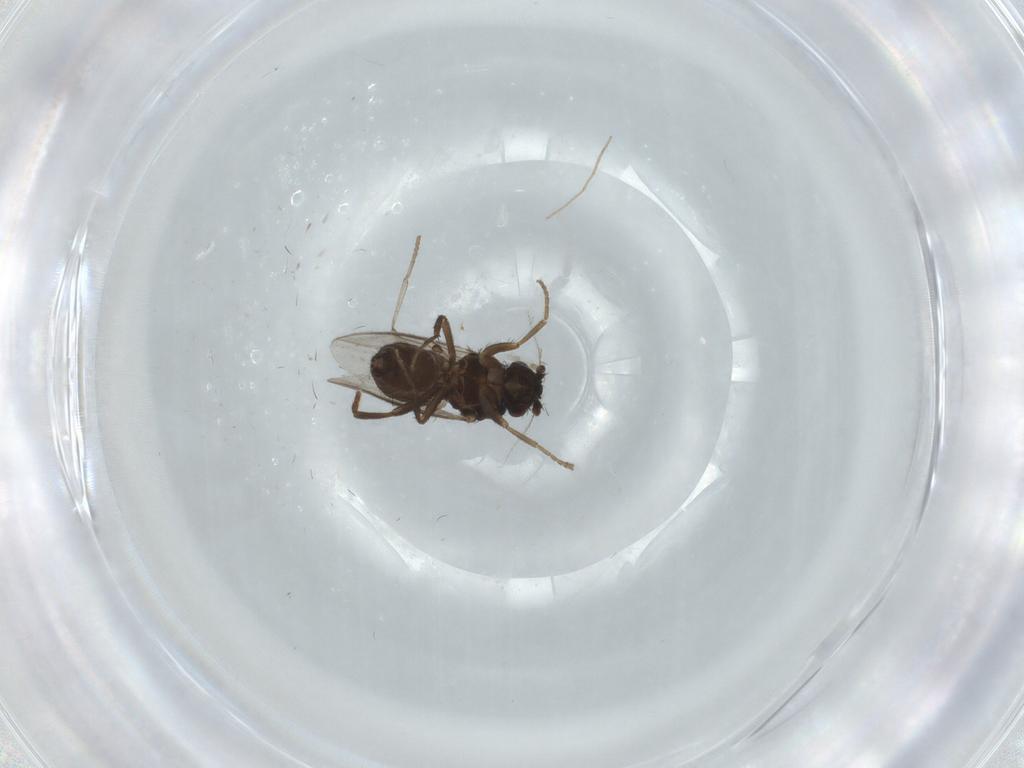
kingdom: Animalia
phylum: Arthropoda
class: Insecta
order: Diptera
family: Sphaeroceridae
